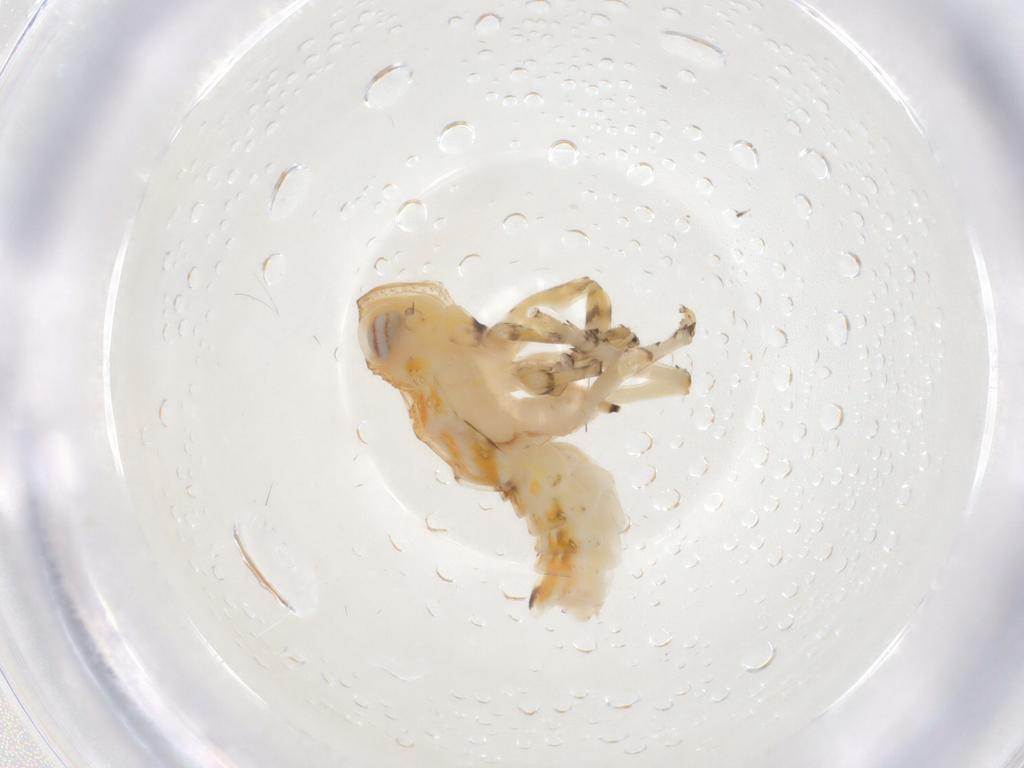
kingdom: Animalia
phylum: Arthropoda
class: Insecta
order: Hemiptera
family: Issidae
